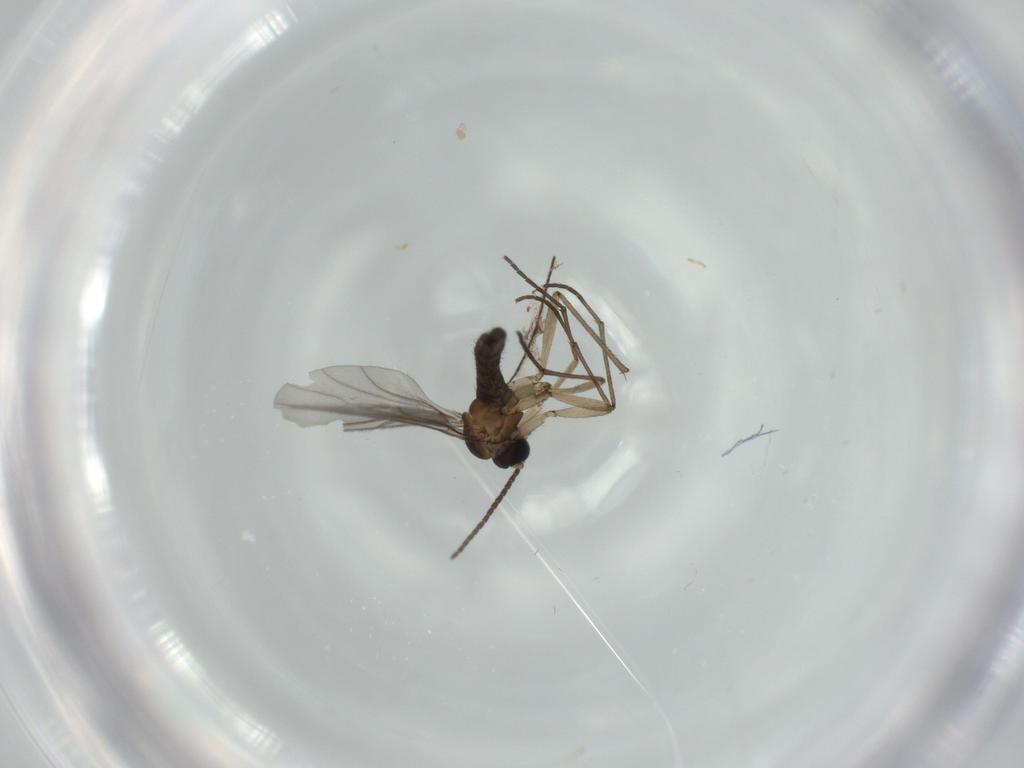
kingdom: Animalia
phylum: Arthropoda
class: Insecta
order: Diptera
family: Sciaridae
